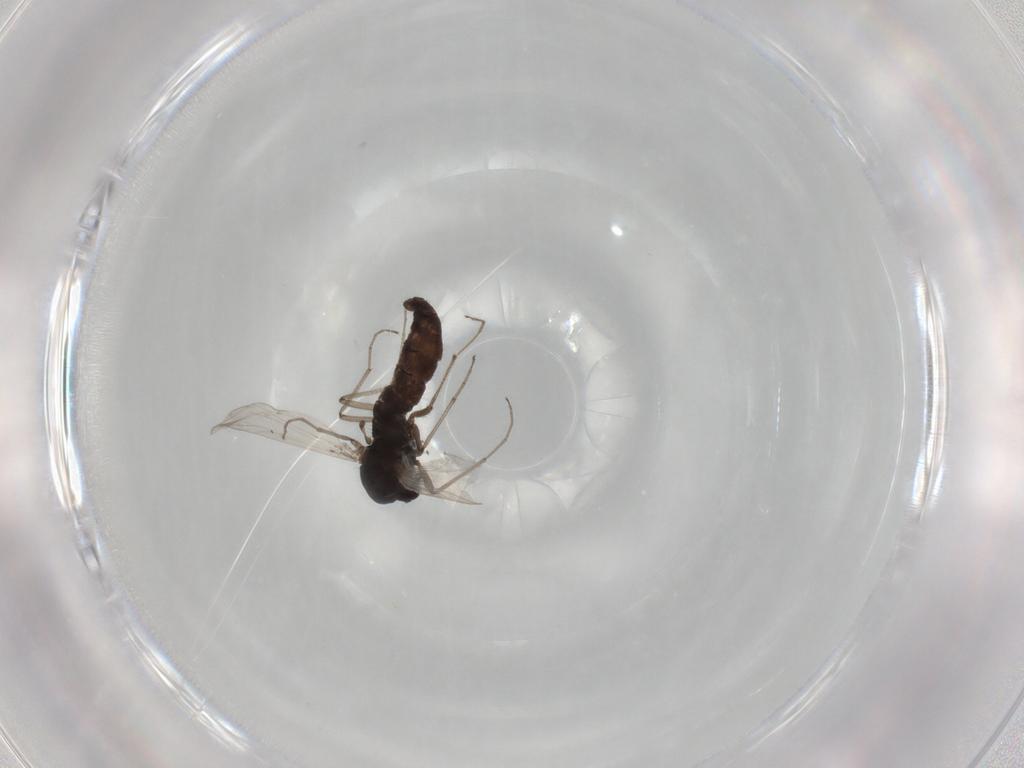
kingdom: Animalia
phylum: Arthropoda
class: Insecta
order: Diptera
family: Chironomidae
